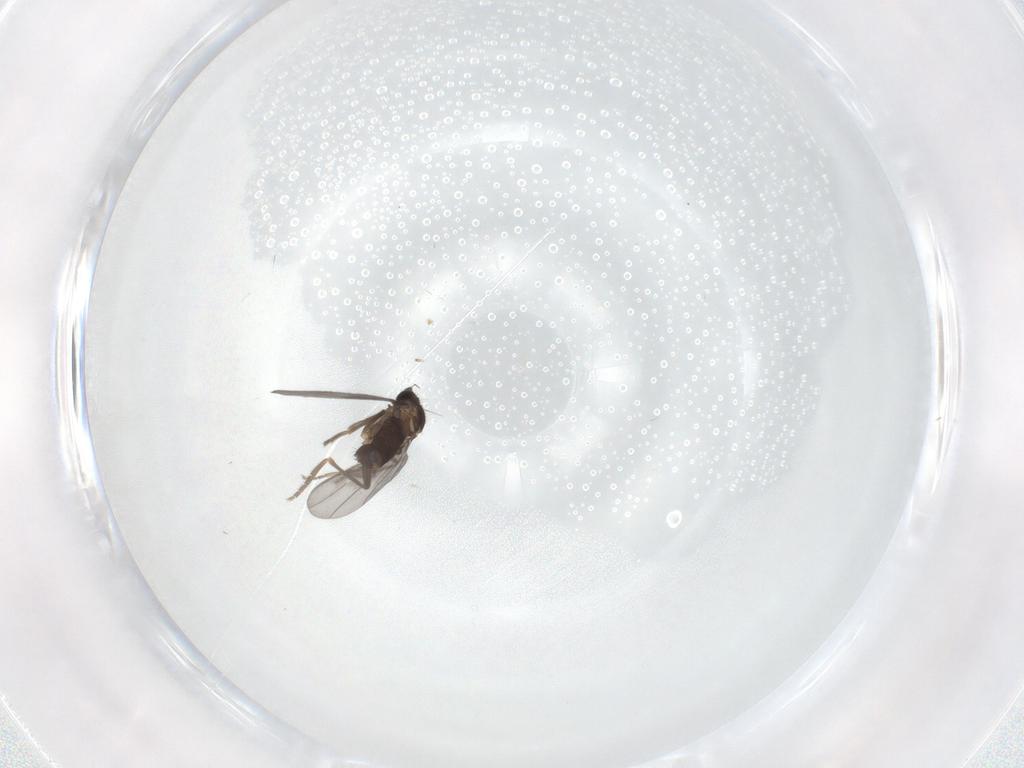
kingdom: Animalia
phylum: Arthropoda
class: Insecta
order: Diptera
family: Phoridae
